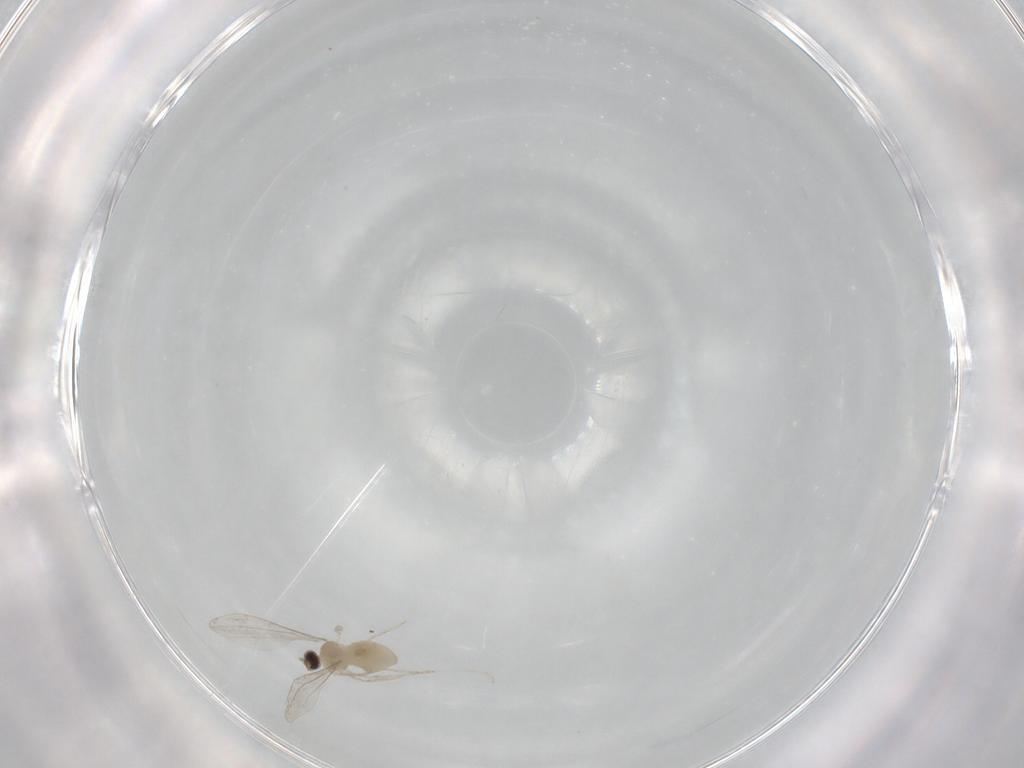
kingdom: Animalia
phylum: Arthropoda
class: Insecta
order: Diptera
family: Cecidomyiidae
